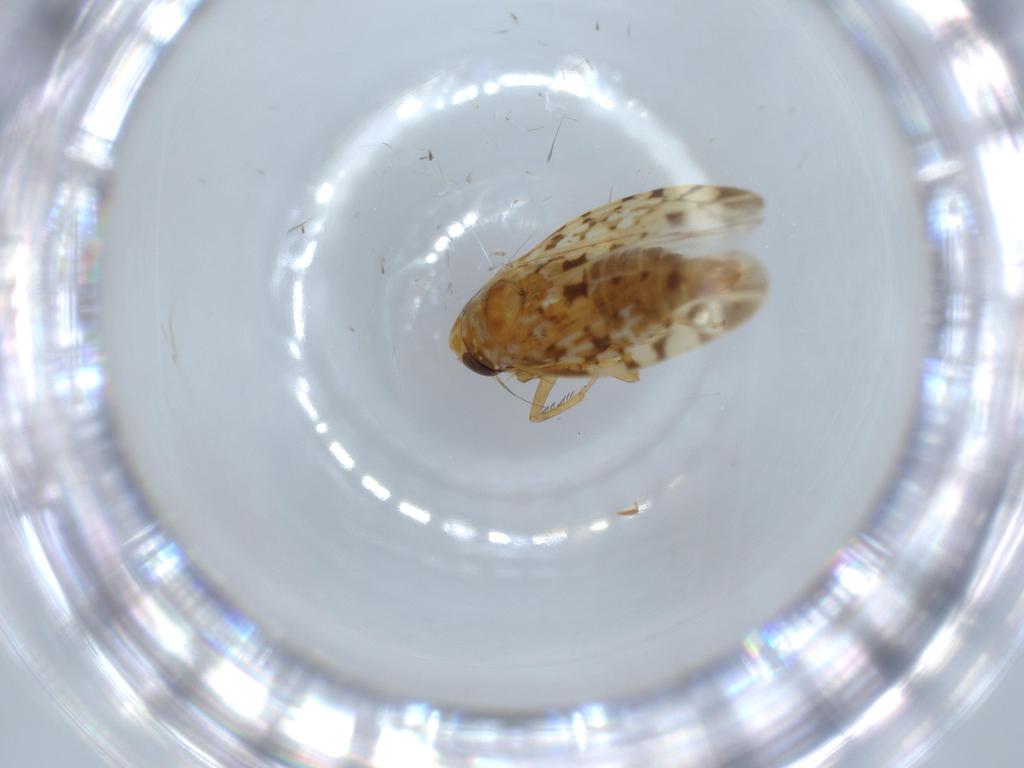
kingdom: Animalia
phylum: Arthropoda
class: Insecta
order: Hemiptera
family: Cicadellidae
